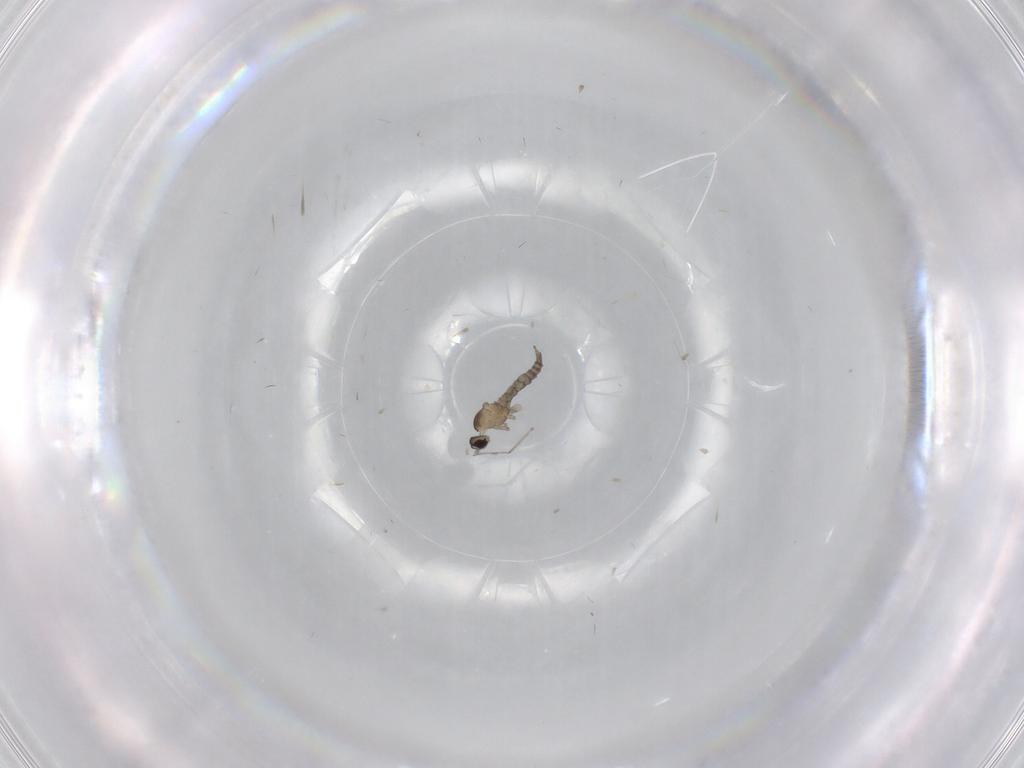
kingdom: Animalia
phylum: Arthropoda
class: Insecta
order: Diptera
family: Cecidomyiidae
